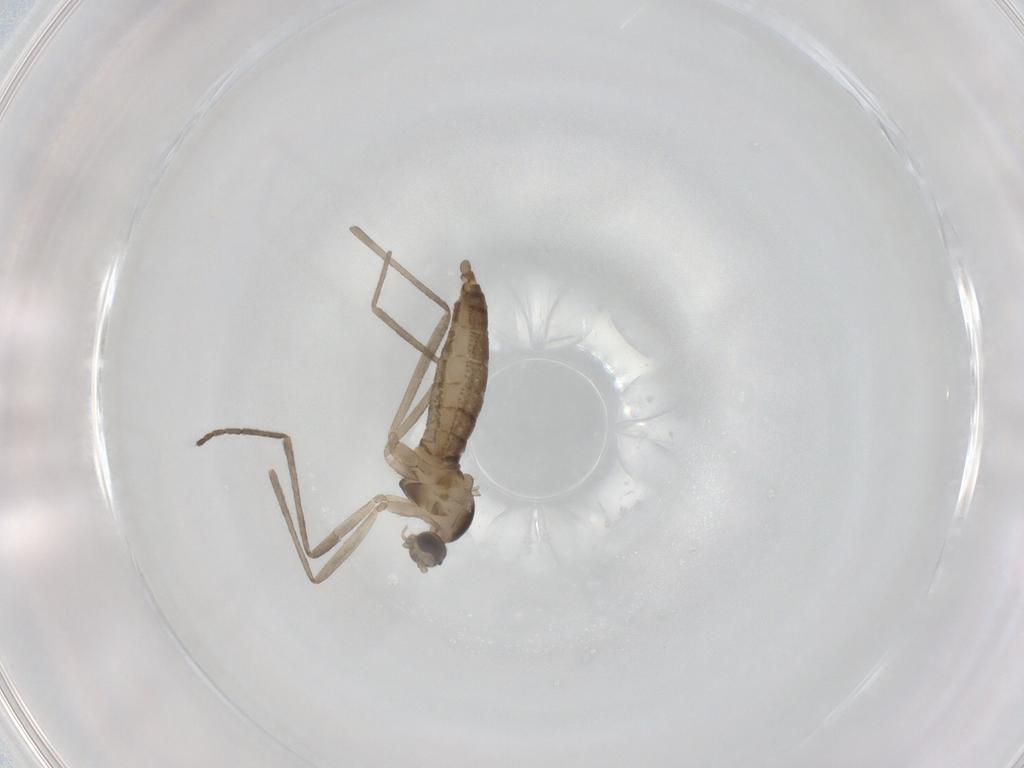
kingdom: Animalia
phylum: Arthropoda
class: Insecta
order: Diptera
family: Cecidomyiidae
